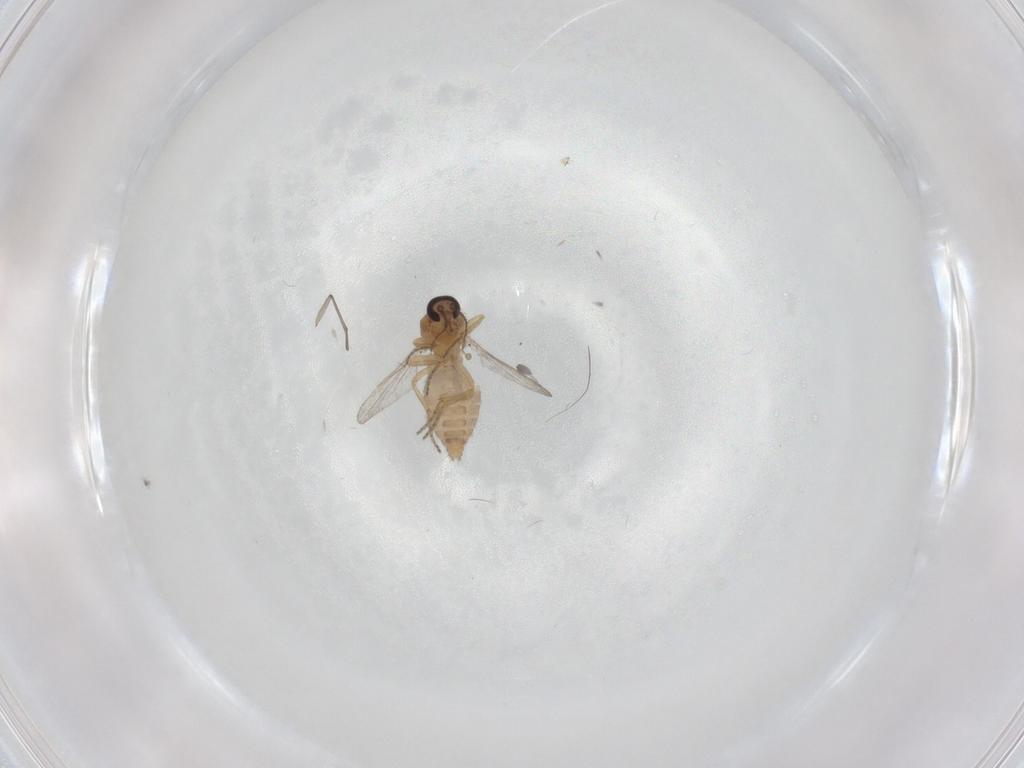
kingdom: Animalia
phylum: Arthropoda
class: Insecta
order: Diptera
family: Ceratopogonidae
